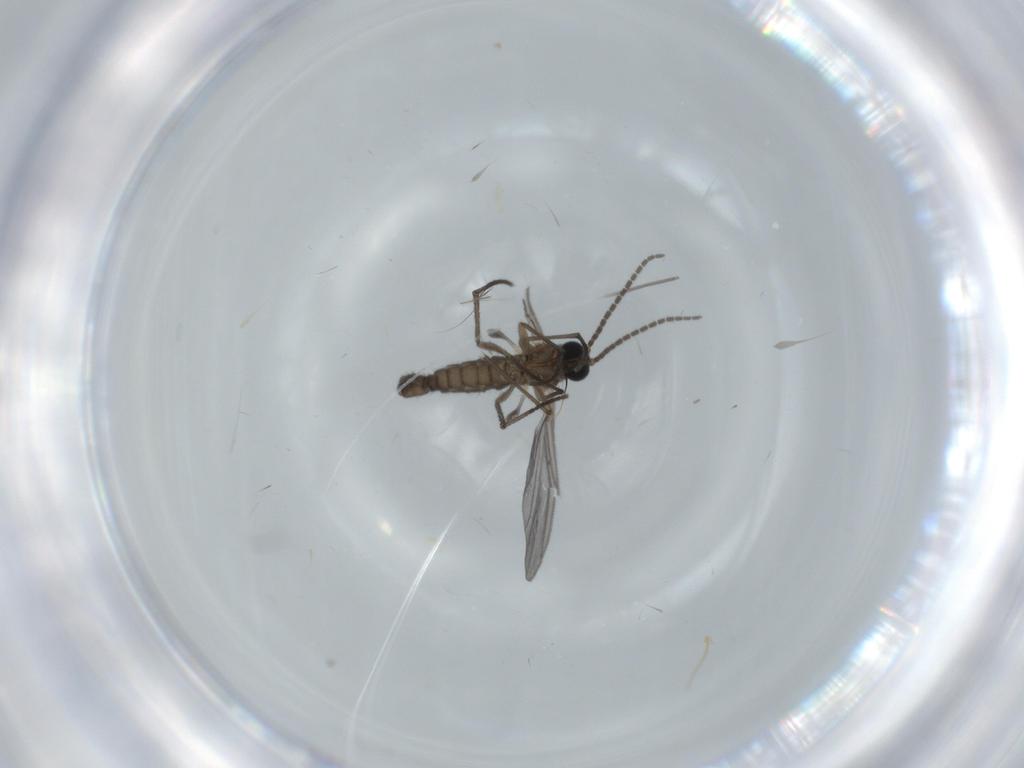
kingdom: Animalia
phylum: Arthropoda
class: Insecta
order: Diptera
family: Sciaridae
